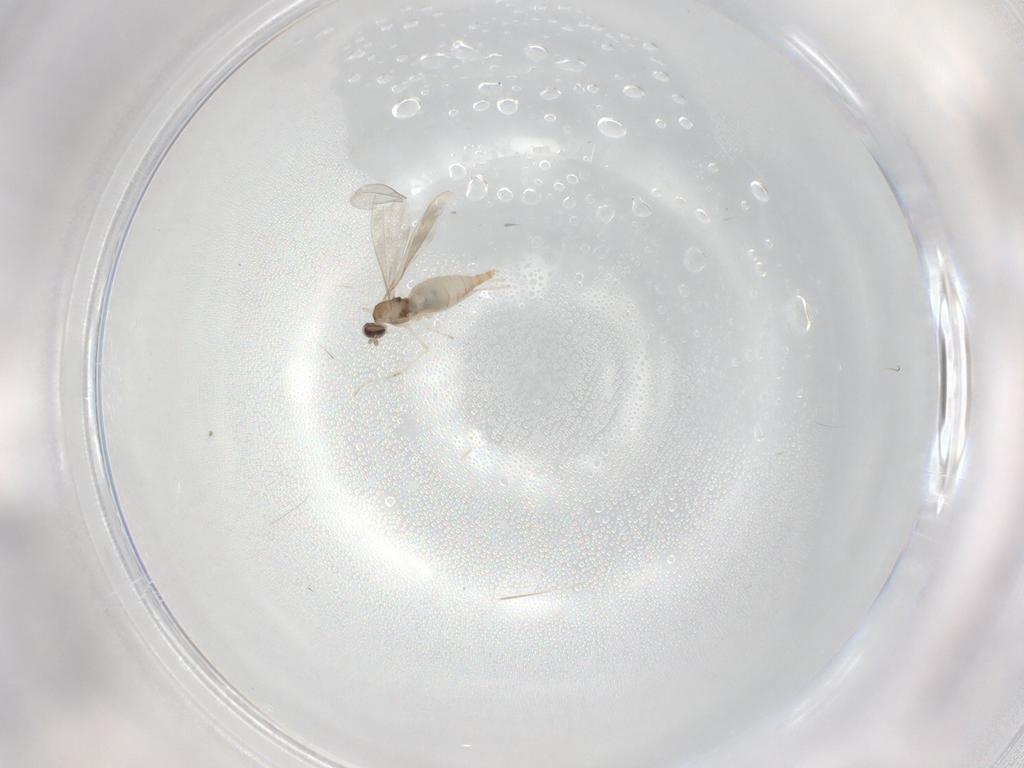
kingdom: Animalia
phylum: Arthropoda
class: Insecta
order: Diptera
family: Cecidomyiidae
